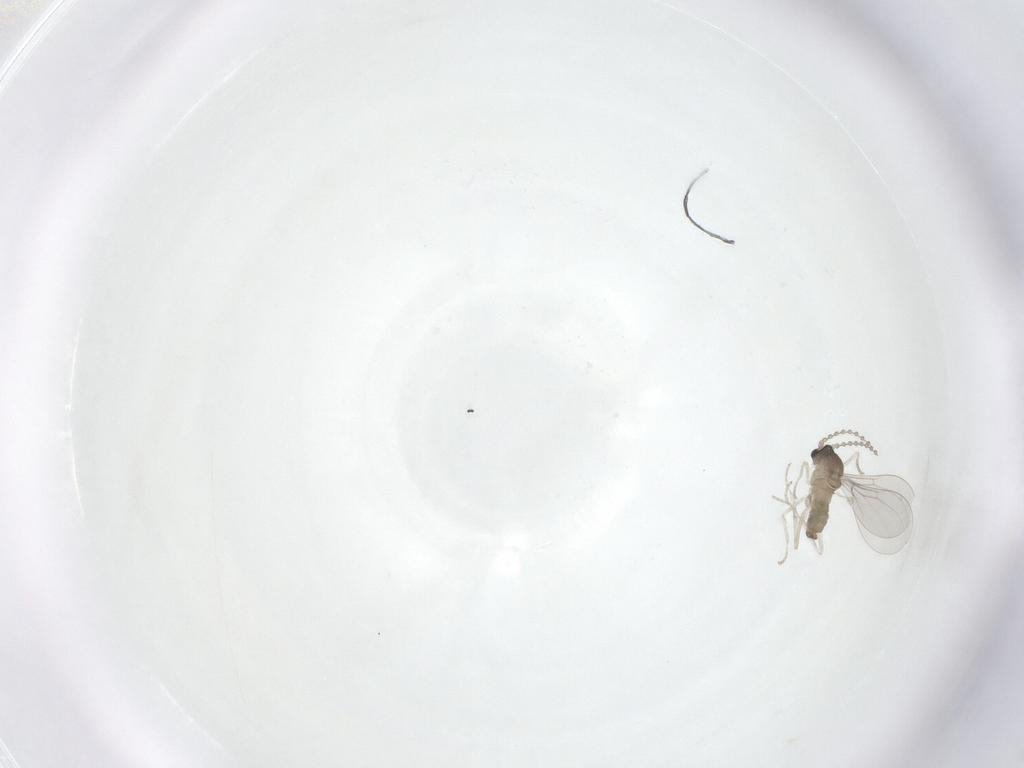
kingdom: Animalia
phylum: Arthropoda
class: Insecta
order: Diptera
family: Cecidomyiidae
